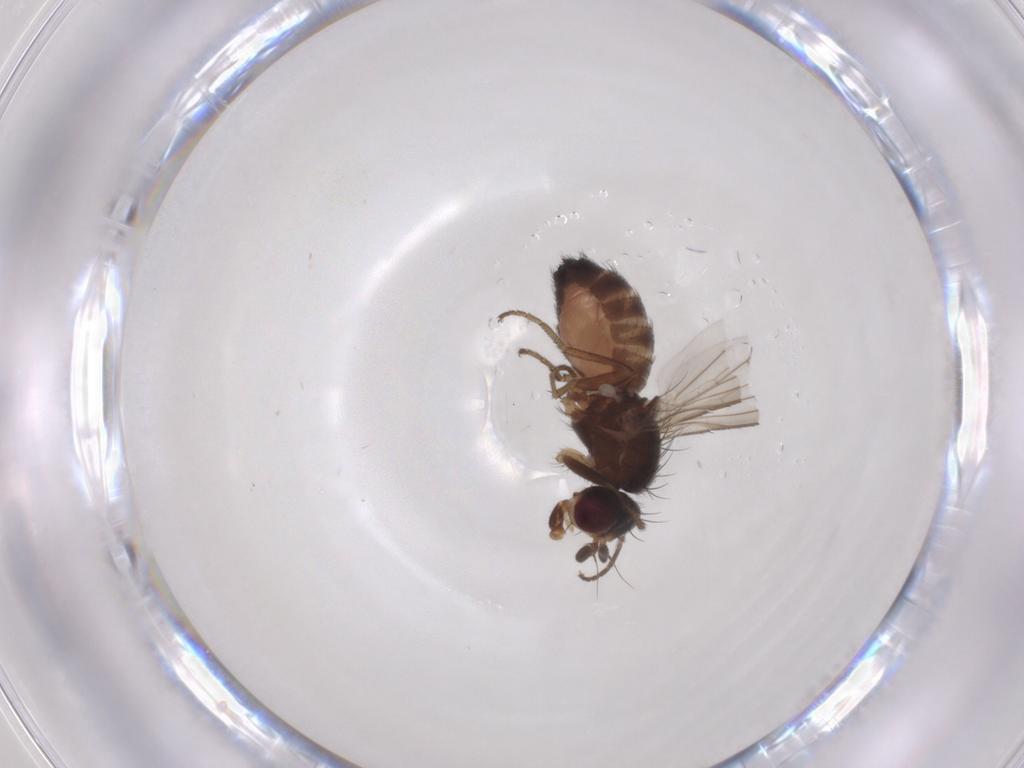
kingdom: Animalia
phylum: Arthropoda
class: Insecta
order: Diptera
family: Heleomyzidae
